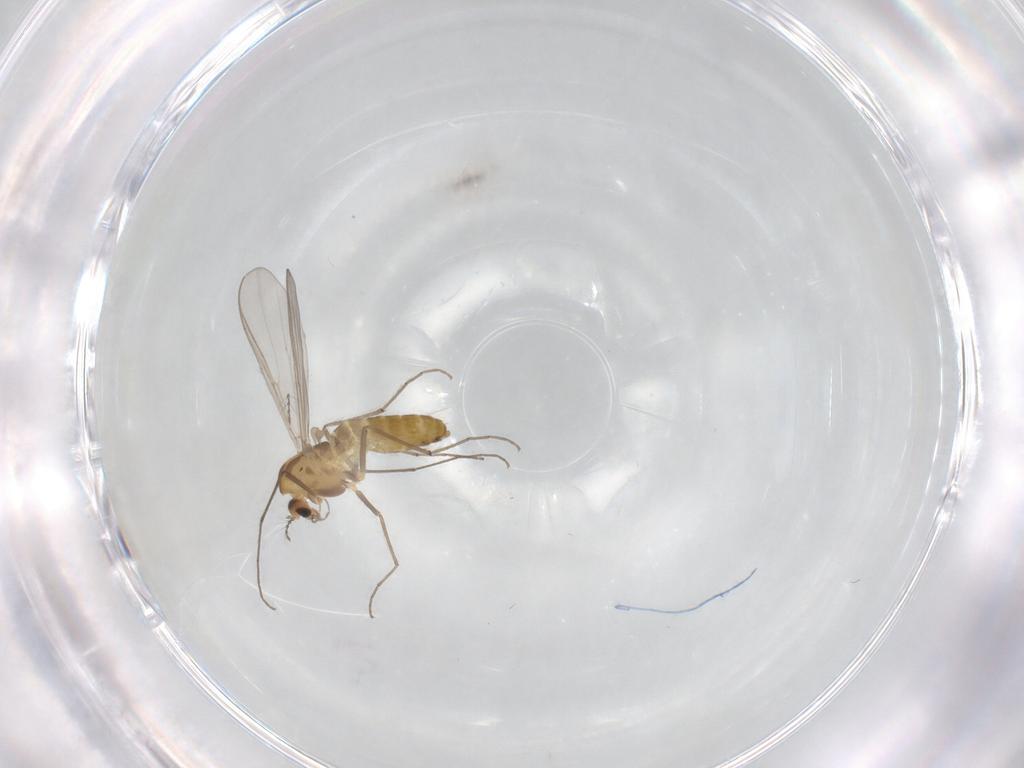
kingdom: Animalia
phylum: Arthropoda
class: Insecta
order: Diptera
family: Chironomidae
